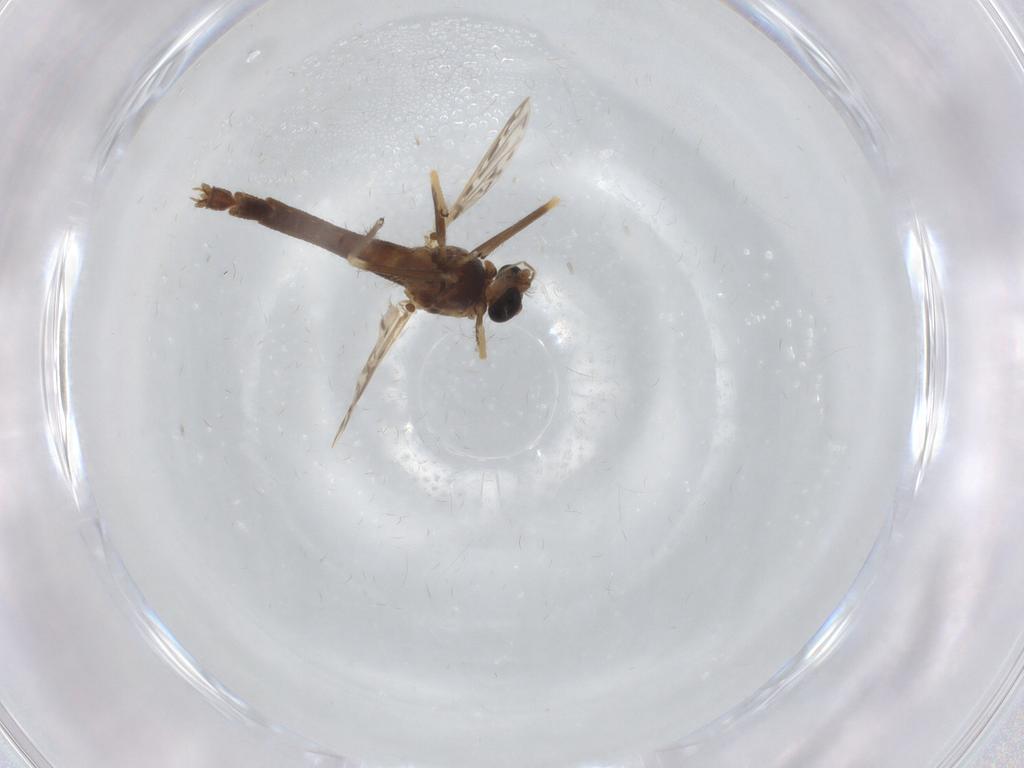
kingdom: Animalia
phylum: Arthropoda
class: Insecta
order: Diptera
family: Chironomidae
